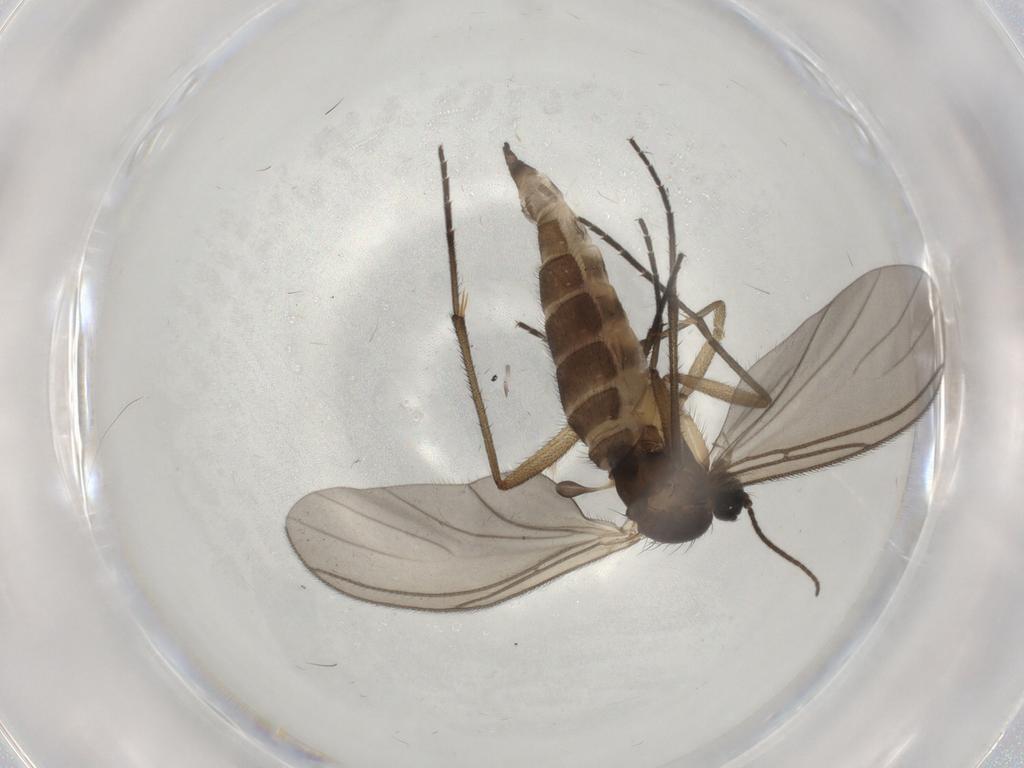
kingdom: Animalia
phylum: Arthropoda
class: Insecta
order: Diptera
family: Sciaridae
